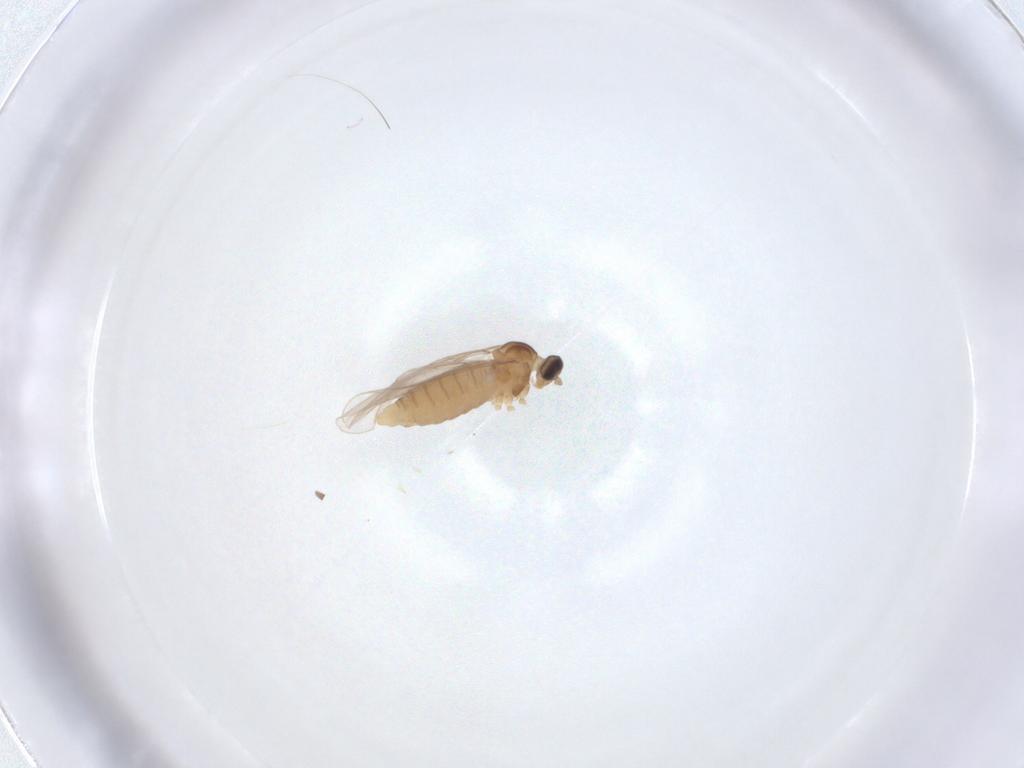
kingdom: Animalia
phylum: Arthropoda
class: Insecta
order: Diptera
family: Cecidomyiidae
